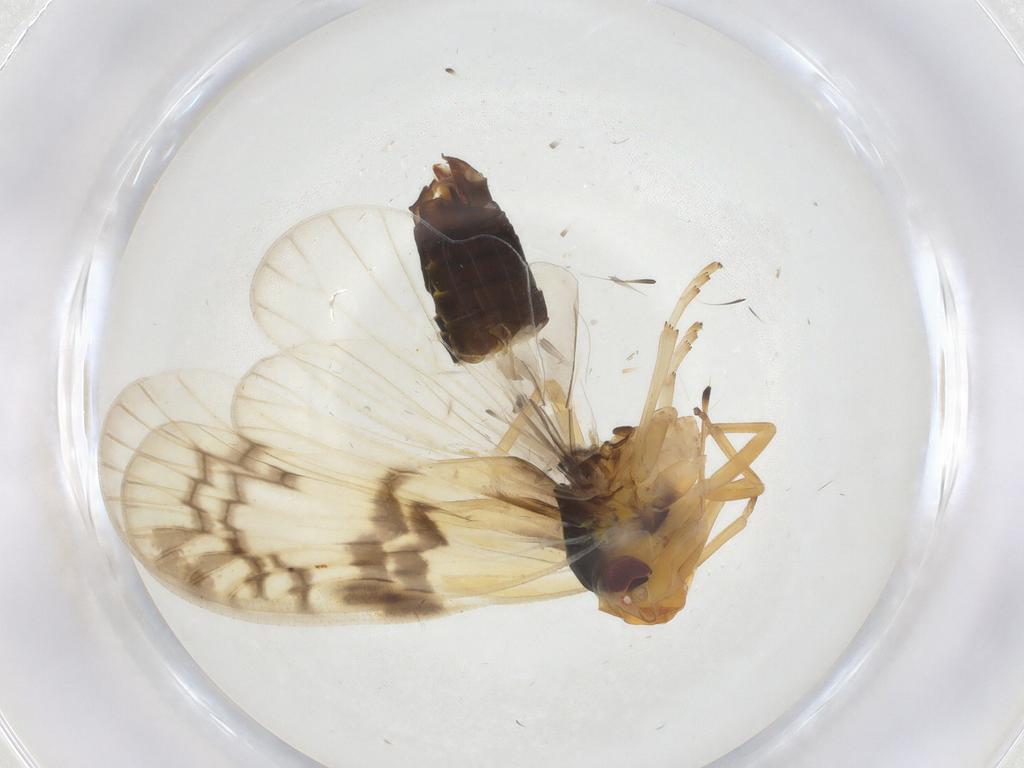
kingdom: Animalia
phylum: Arthropoda
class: Insecta
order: Hemiptera
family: Cixiidae
